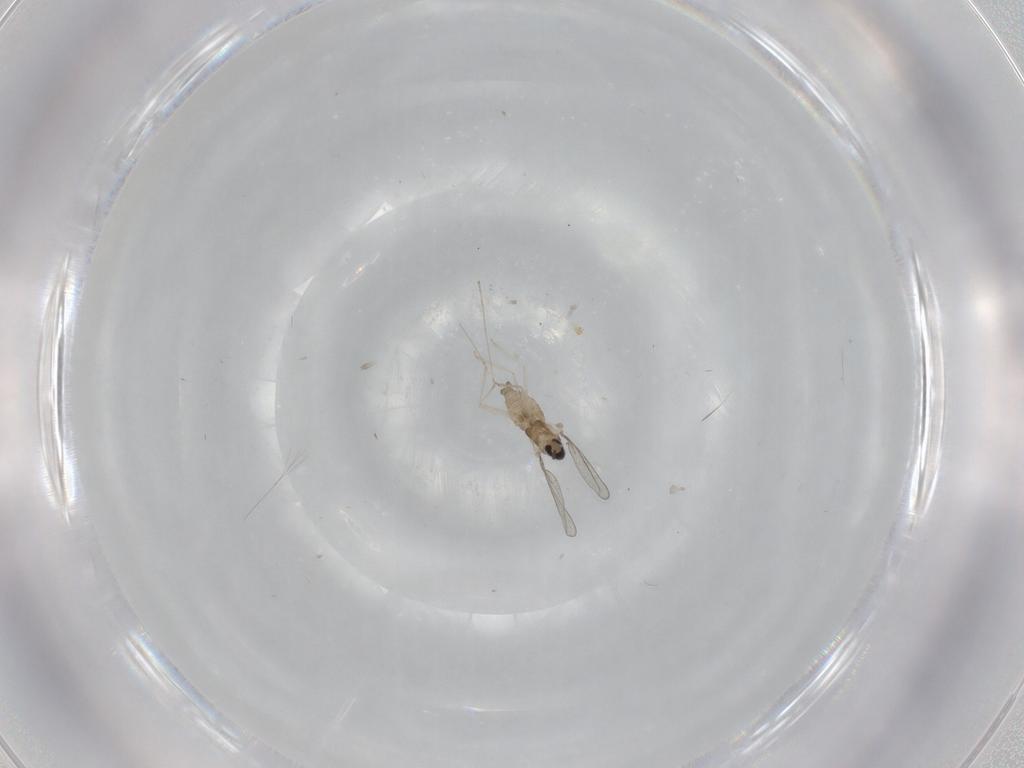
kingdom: Animalia
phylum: Arthropoda
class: Insecta
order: Diptera
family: Cecidomyiidae
